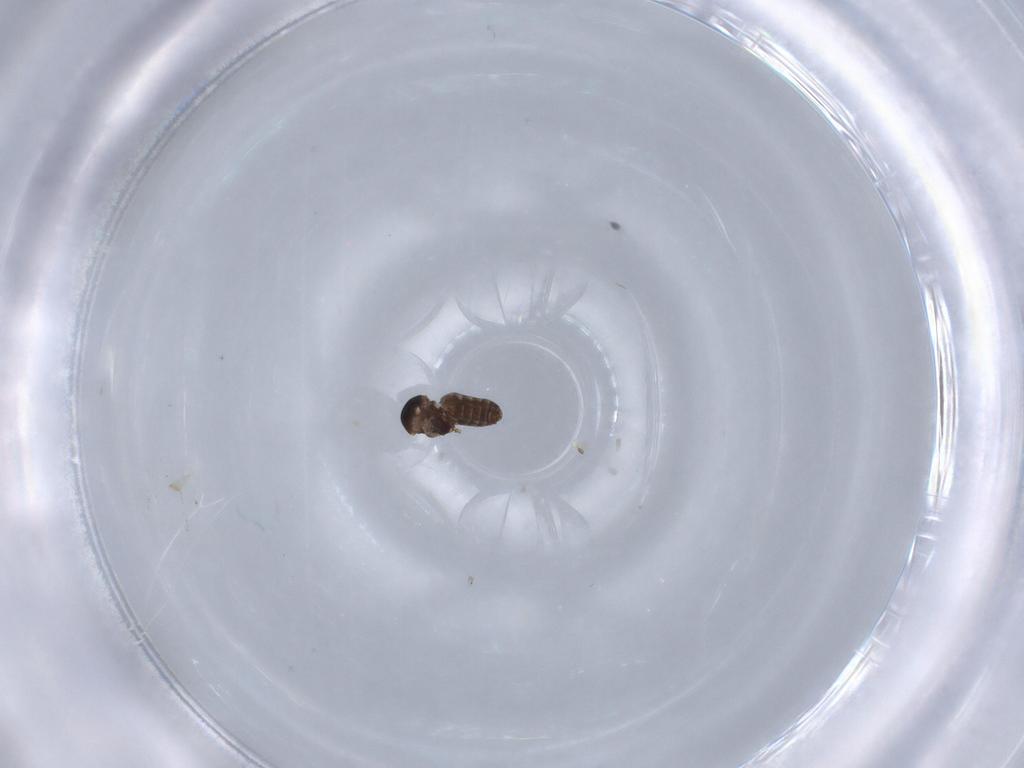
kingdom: Animalia
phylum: Arthropoda
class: Insecta
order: Diptera
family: Ceratopogonidae
